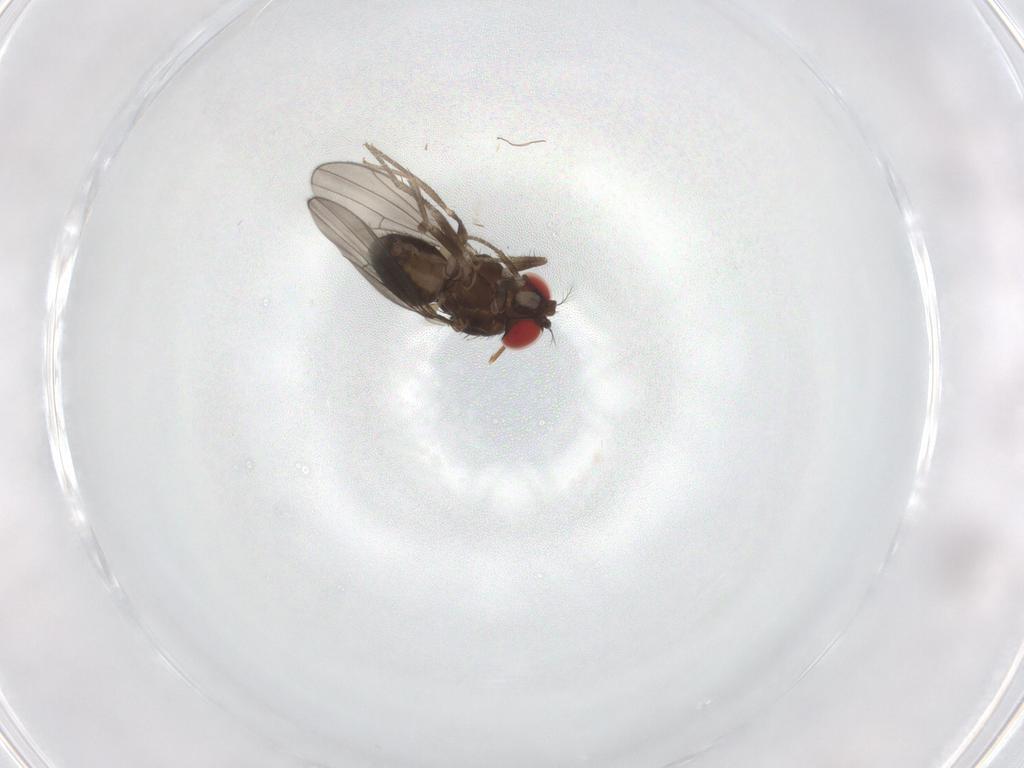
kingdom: Animalia
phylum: Arthropoda
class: Insecta
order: Diptera
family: Drosophilidae
